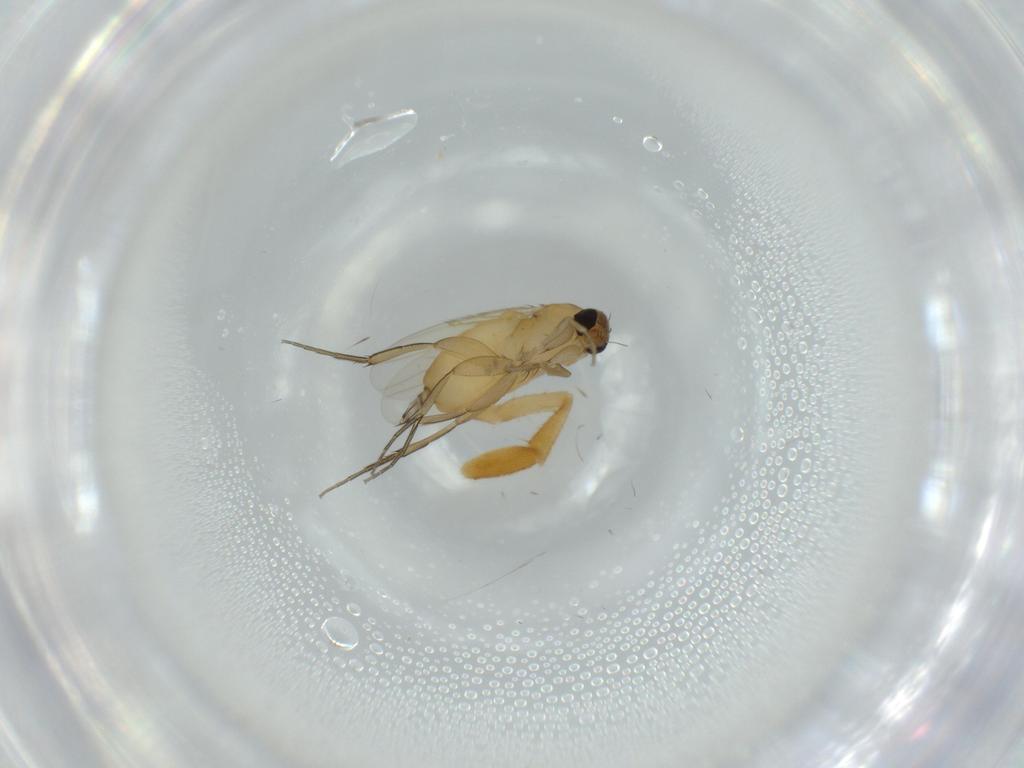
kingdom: Animalia
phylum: Arthropoda
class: Insecta
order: Diptera
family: Phoridae
